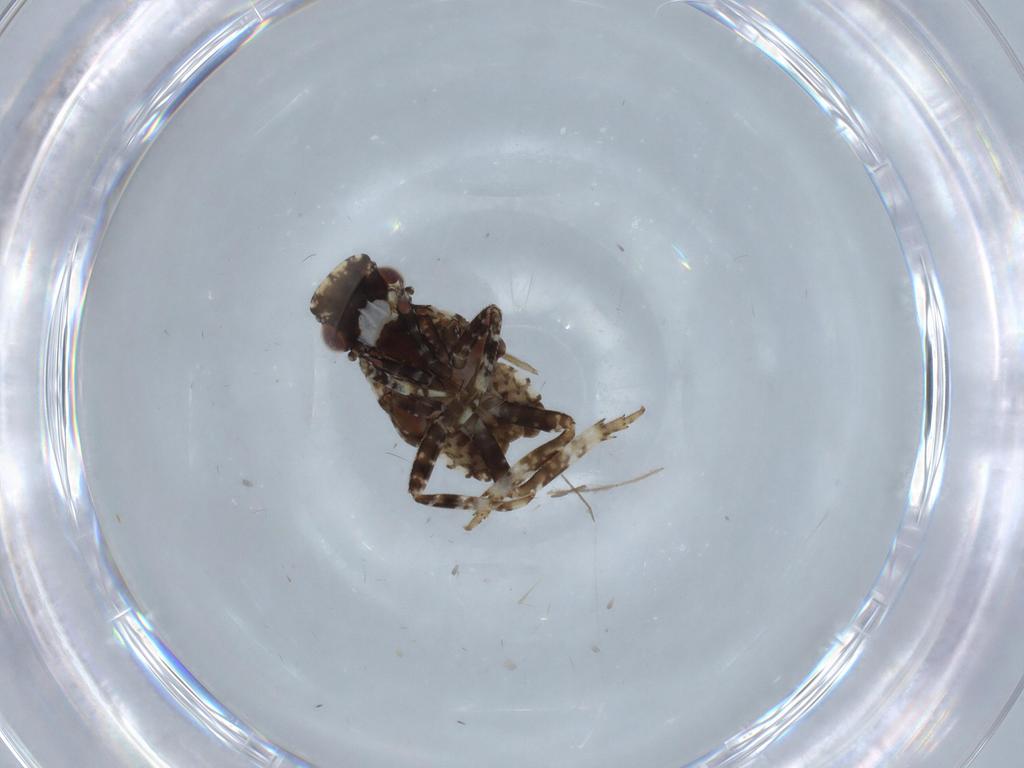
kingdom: Animalia
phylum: Arthropoda
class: Insecta
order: Hemiptera
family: Fulgoridae
